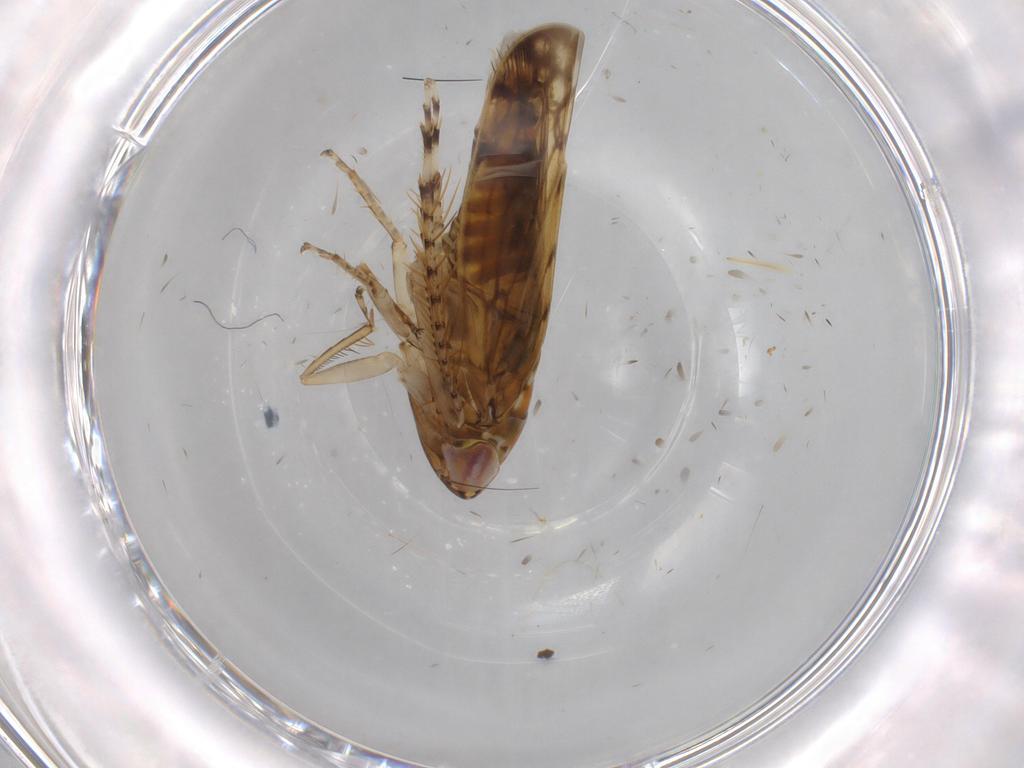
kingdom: Animalia
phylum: Arthropoda
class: Insecta
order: Hemiptera
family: Cicadellidae
